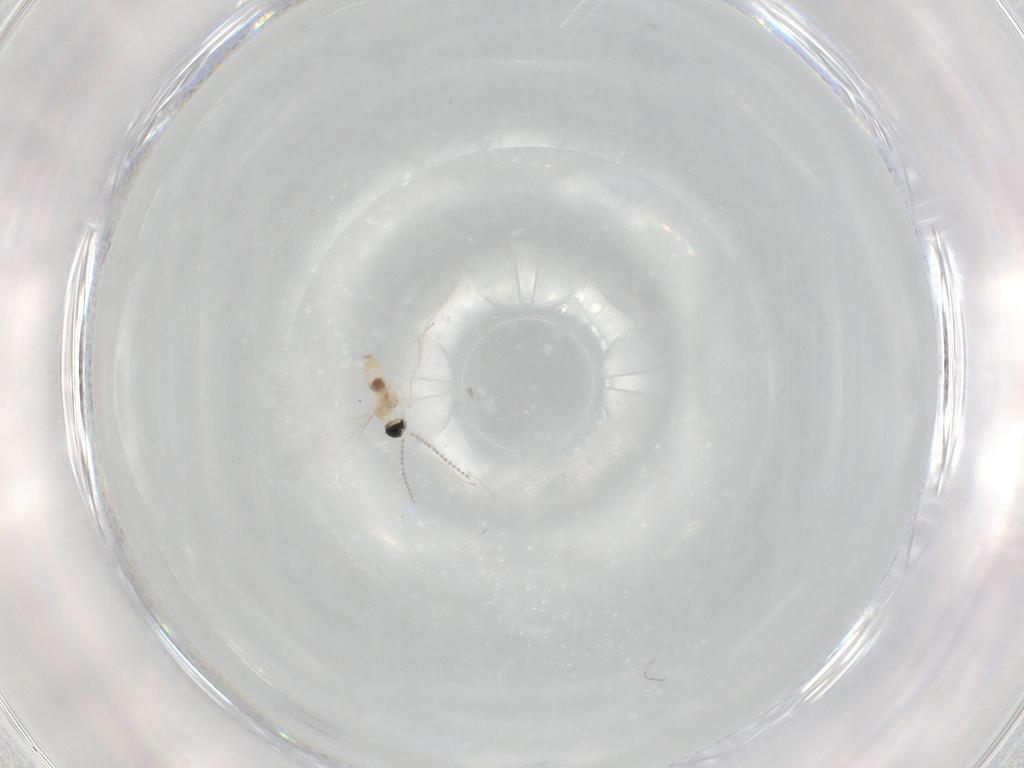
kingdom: Animalia
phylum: Arthropoda
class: Insecta
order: Diptera
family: Cecidomyiidae
